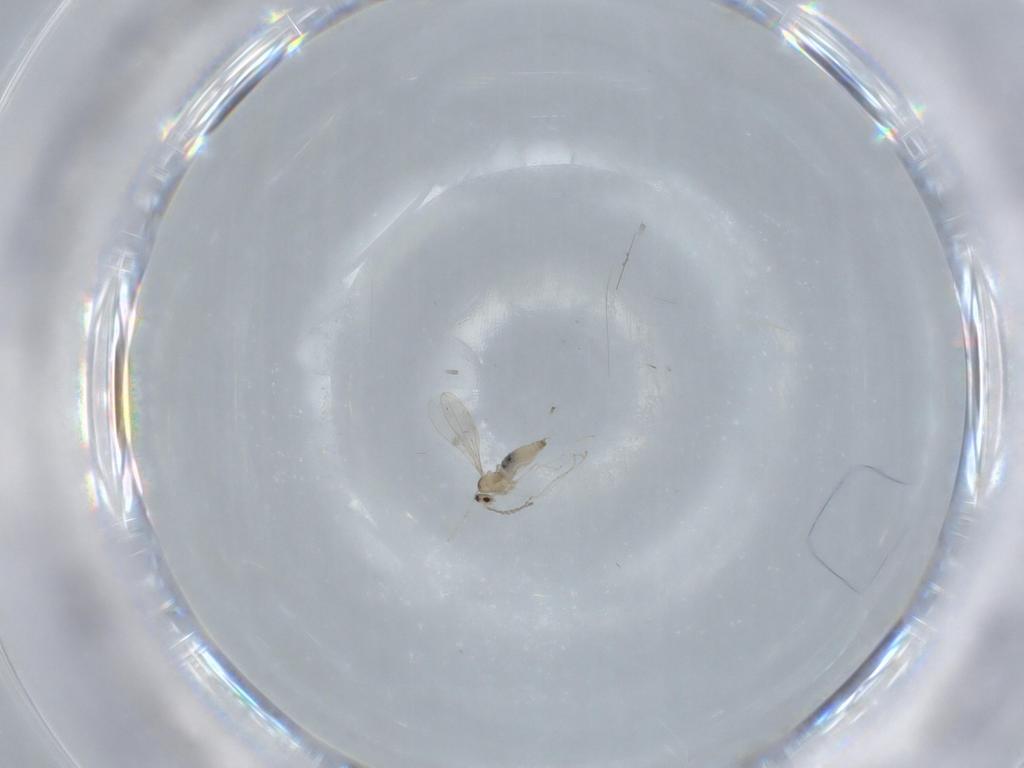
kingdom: Animalia
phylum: Arthropoda
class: Insecta
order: Diptera
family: Cecidomyiidae
